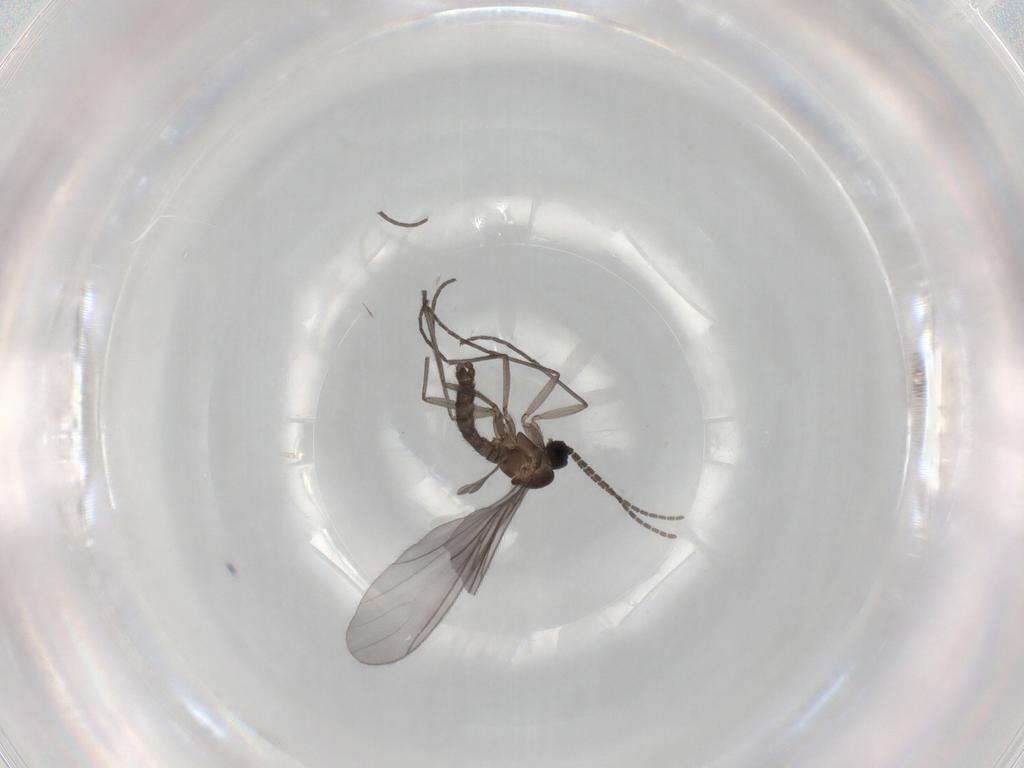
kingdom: Animalia
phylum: Arthropoda
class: Insecta
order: Diptera
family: Sciaridae
